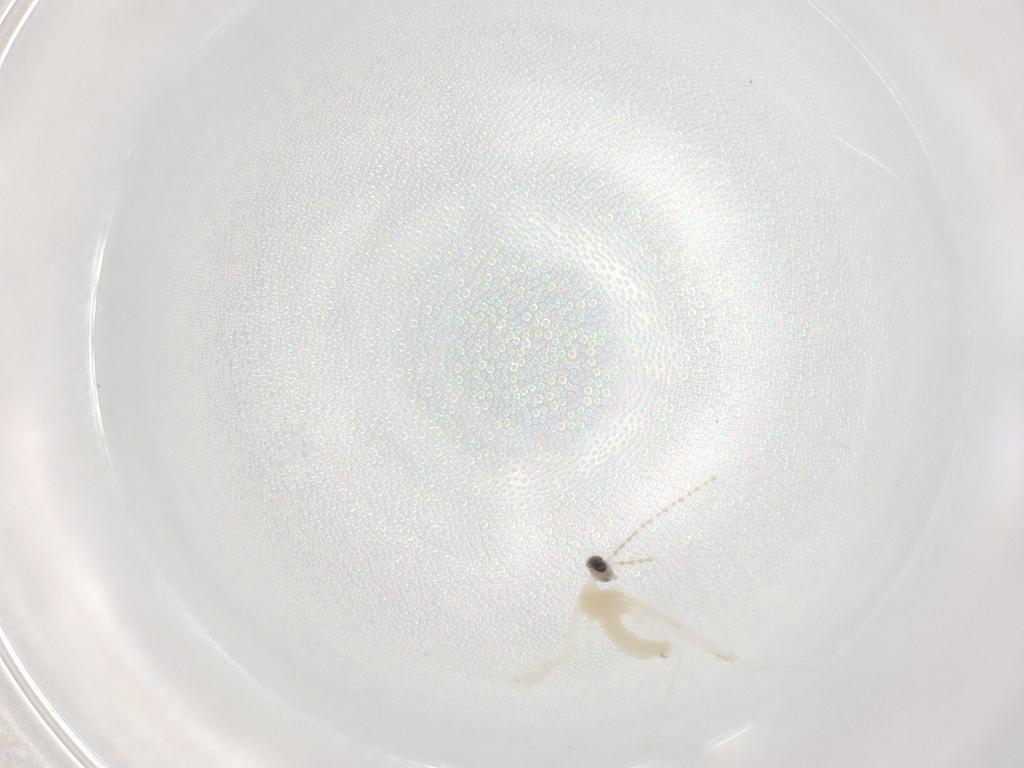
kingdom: Animalia
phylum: Arthropoda
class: Insecta
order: Diptera
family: Cecidomyiidae
